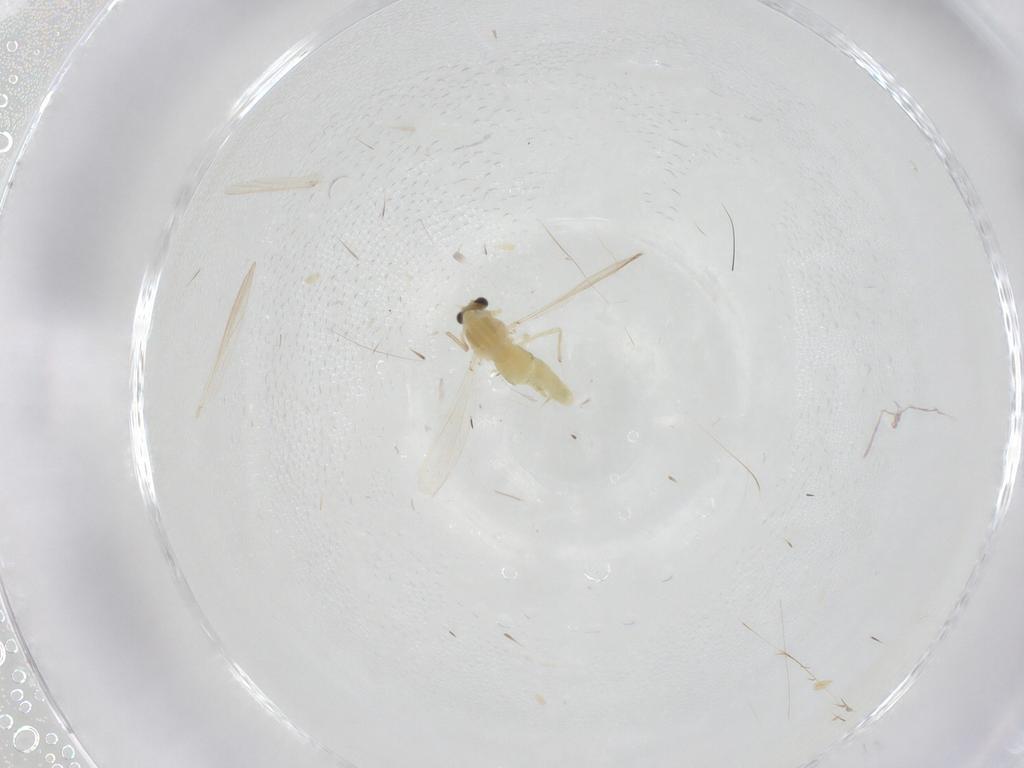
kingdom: Animalia
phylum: Arthropoda
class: Insecta
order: Diptera
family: Chironomidae
